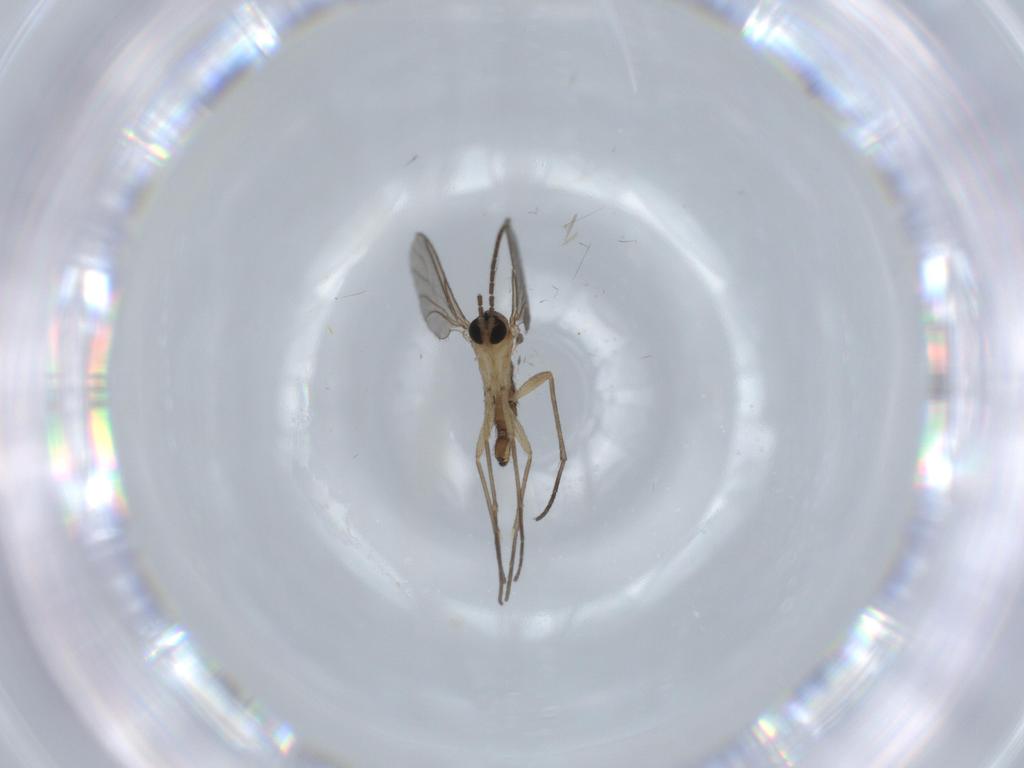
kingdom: Animalia
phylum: Arthropoda
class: Insecta
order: Diptera
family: Sciaridae
